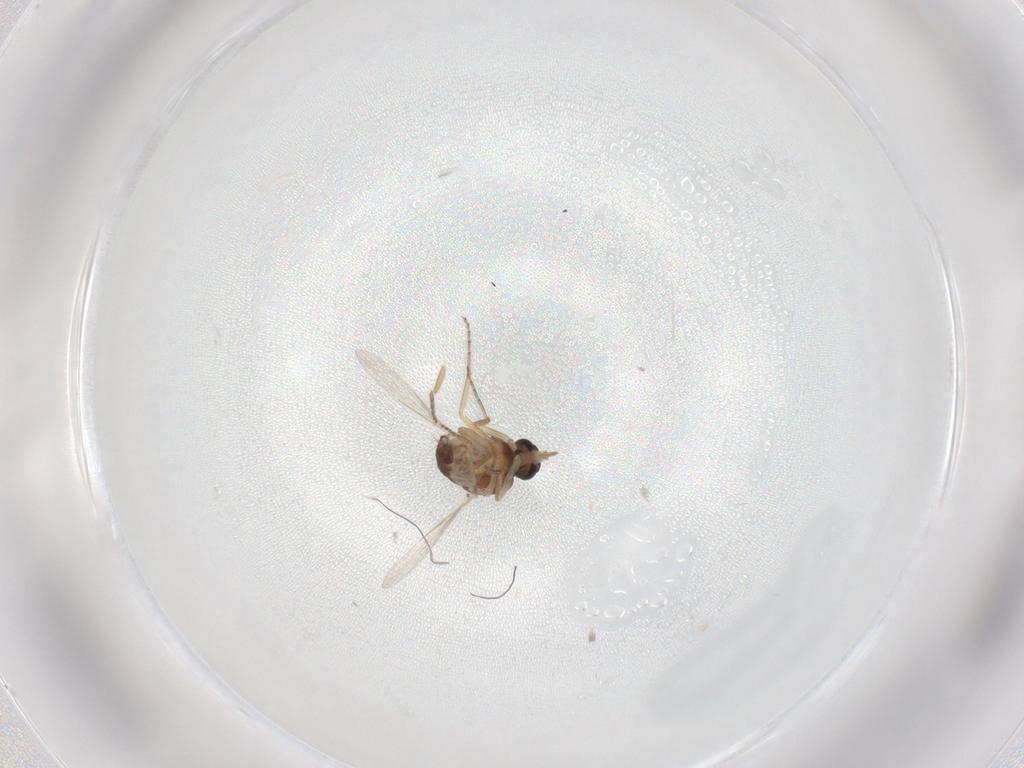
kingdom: Animalia
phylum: Arthropoda
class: Insecta
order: Diptera
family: Ceratopogonidae
